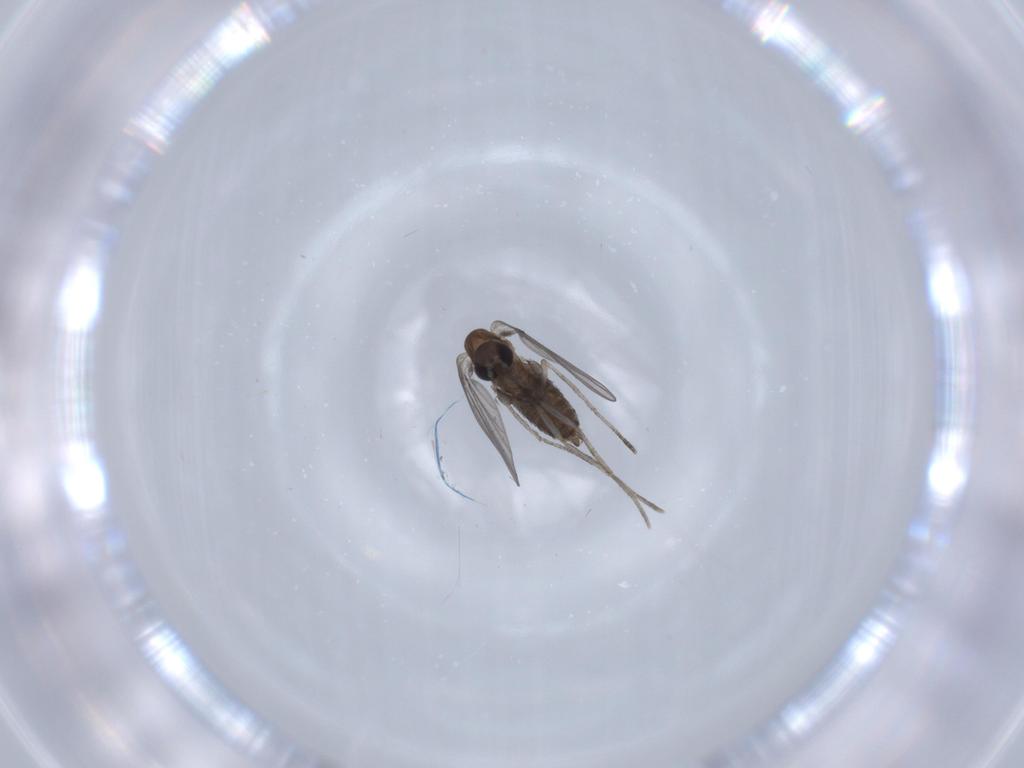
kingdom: Animalia
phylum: Arthropoda
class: Insecta
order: Diptera
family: Psychodidae
